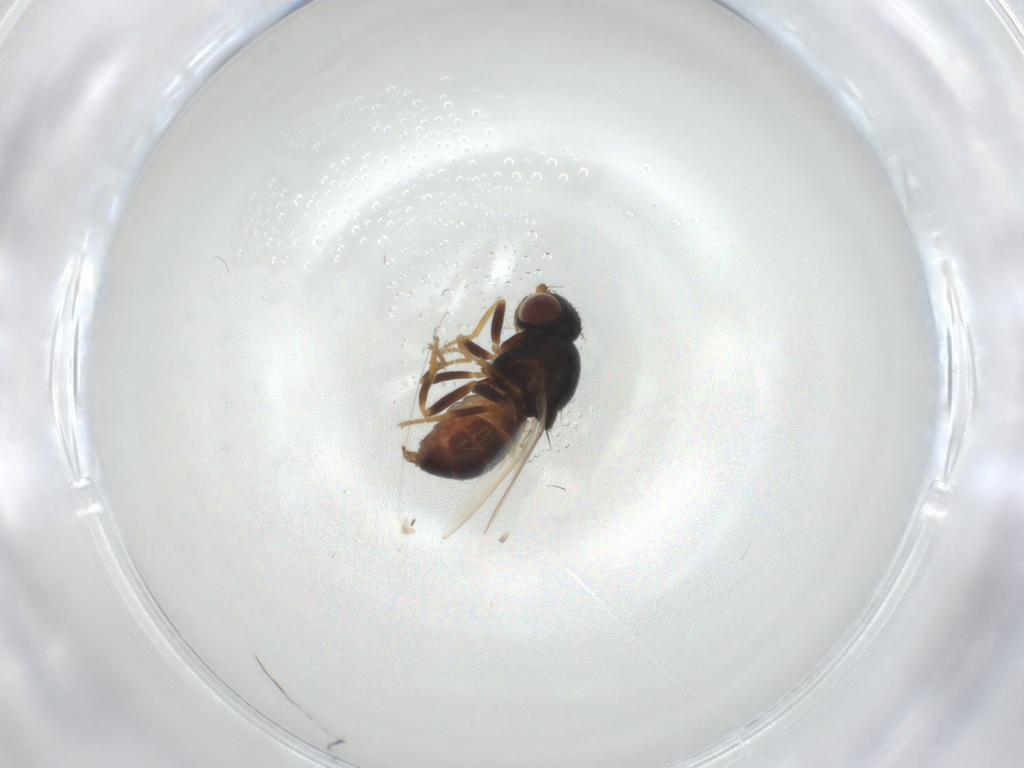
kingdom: Animalia
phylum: Arthropoda
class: Insecta
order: Diptera
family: Chloropidae
